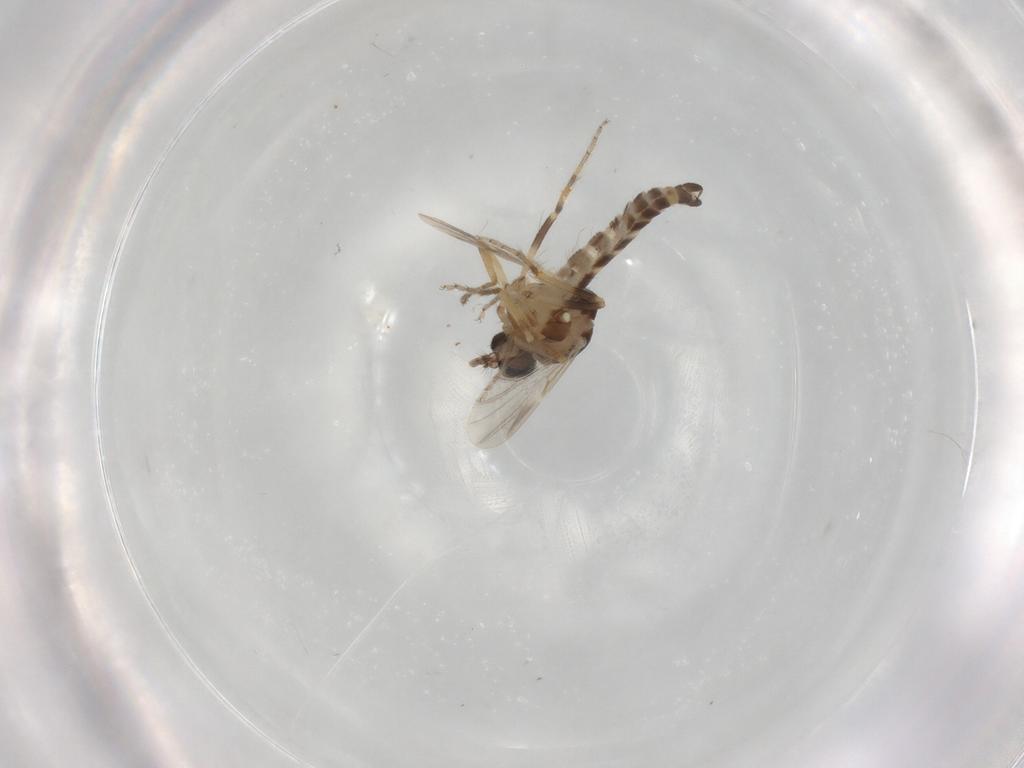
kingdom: Animalia
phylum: Arthropoda
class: Insecta
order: Diptera
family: Ceratopogonidae
